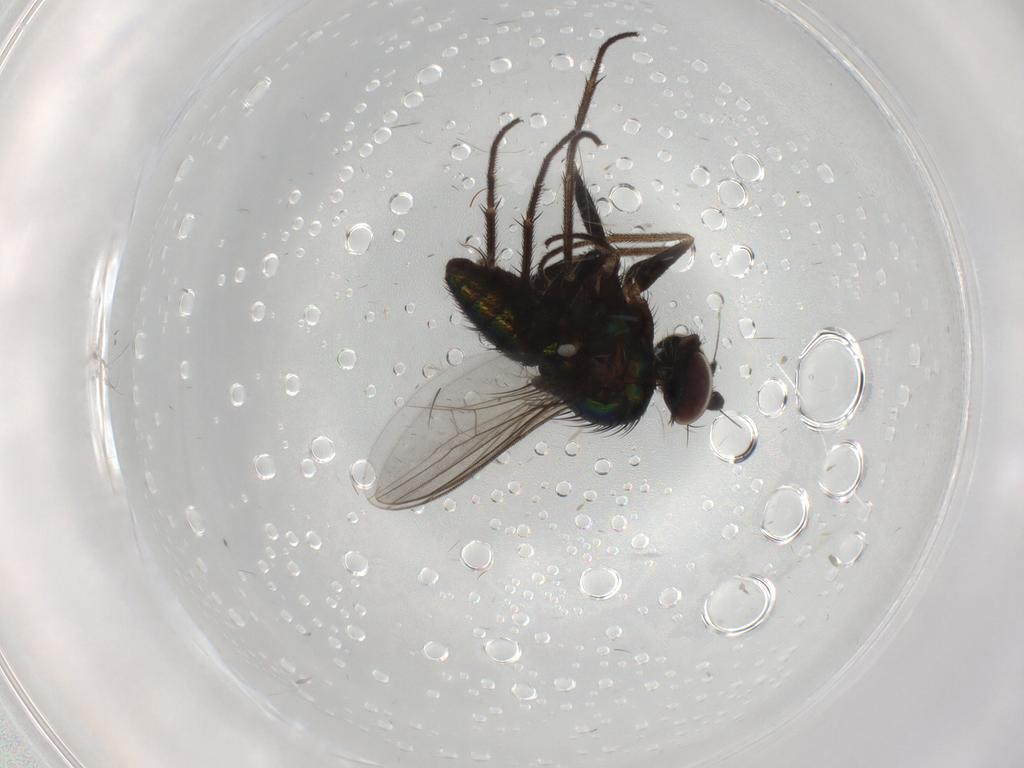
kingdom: Animalia
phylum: Arthropoda
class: Insecta
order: Diptera
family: Dolichopodidae
